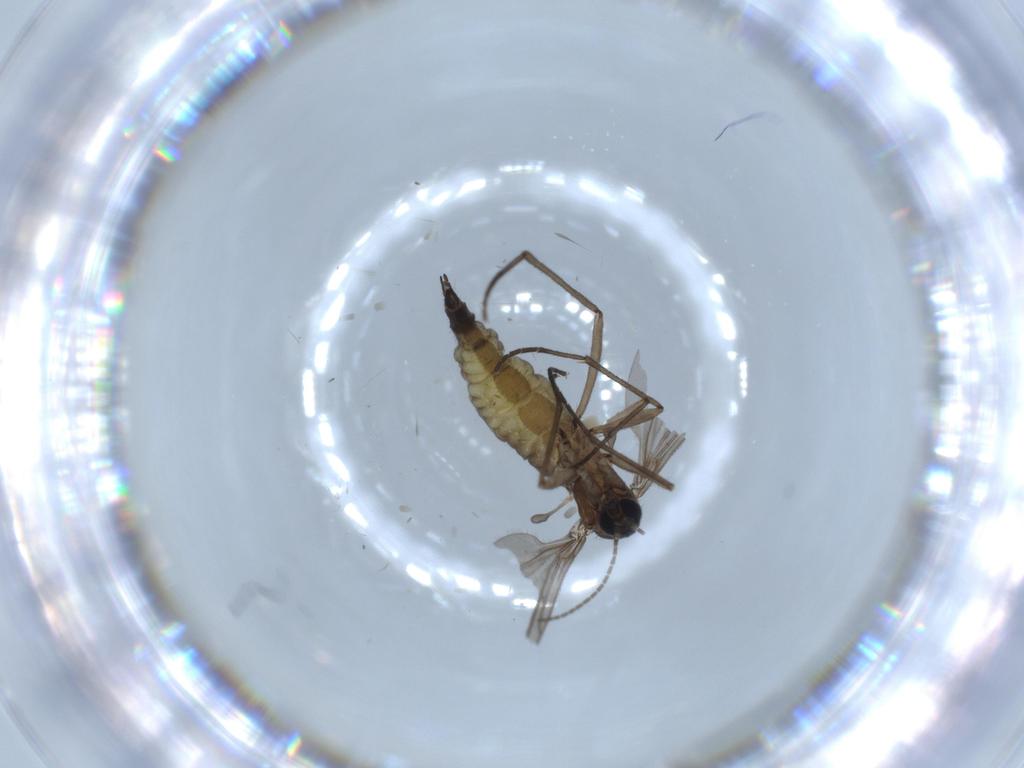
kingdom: Animalia
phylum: Arthropoda
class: Insecta
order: Diptera
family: Sciaridae
